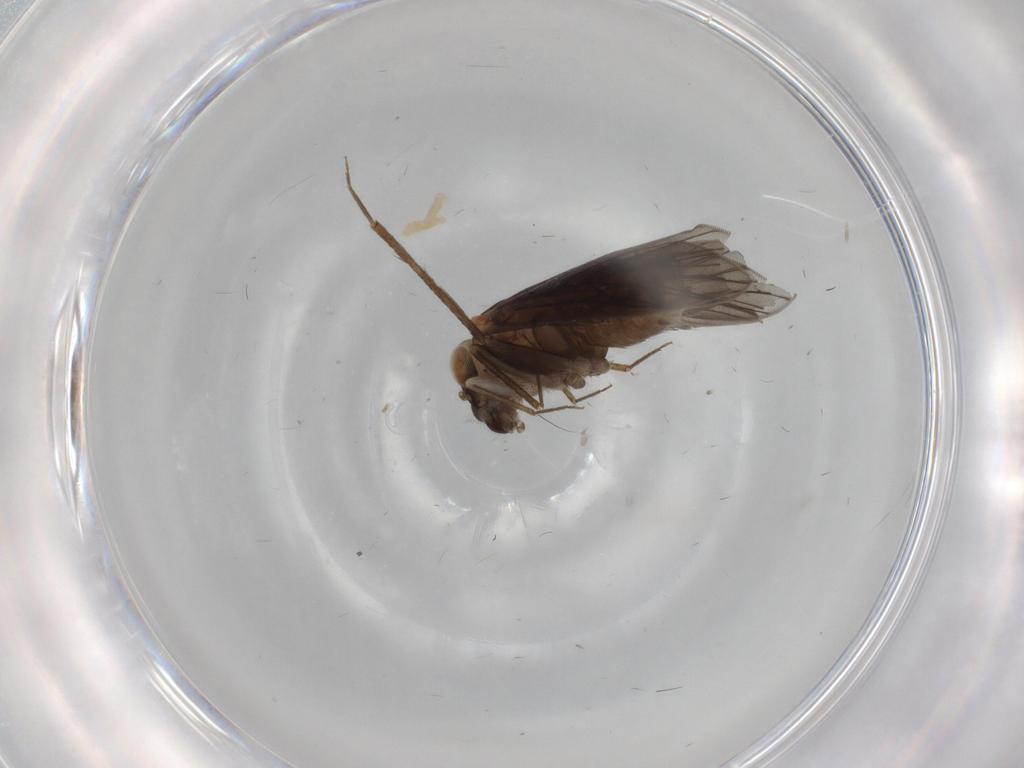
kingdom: Animalia
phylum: Arthropoda
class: Insecta
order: Psocodea
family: Lepidopsocidae
